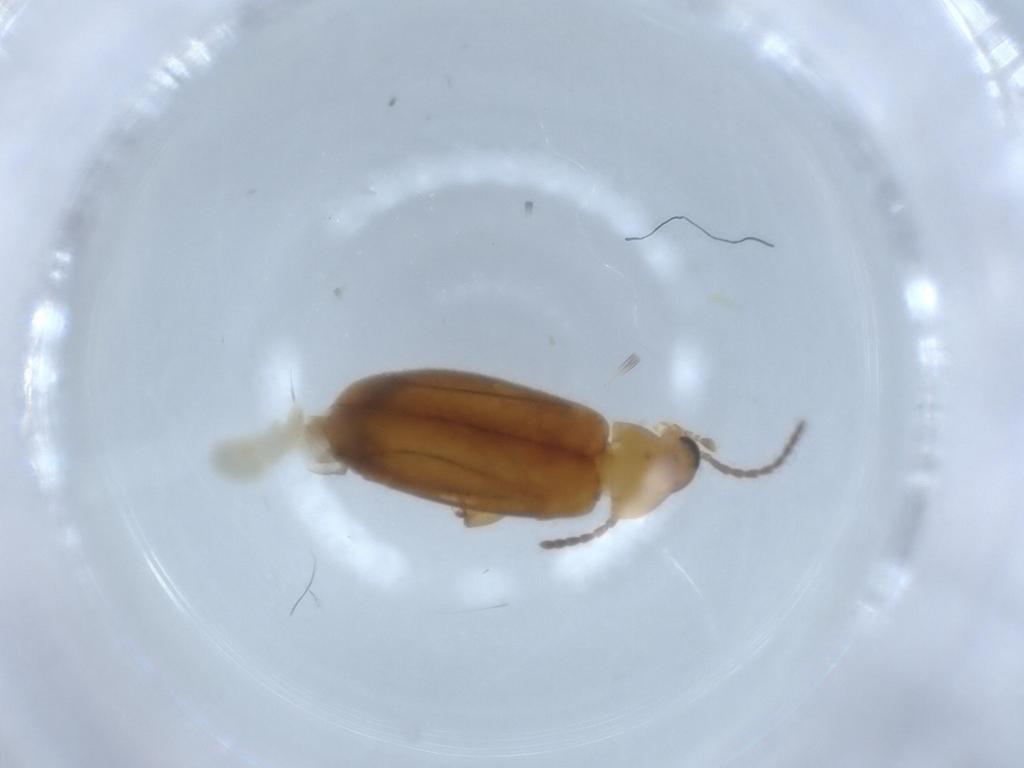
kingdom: Animalia
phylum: Arthropoda
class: Insecta
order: Coleoptera
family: Scraptiidae
